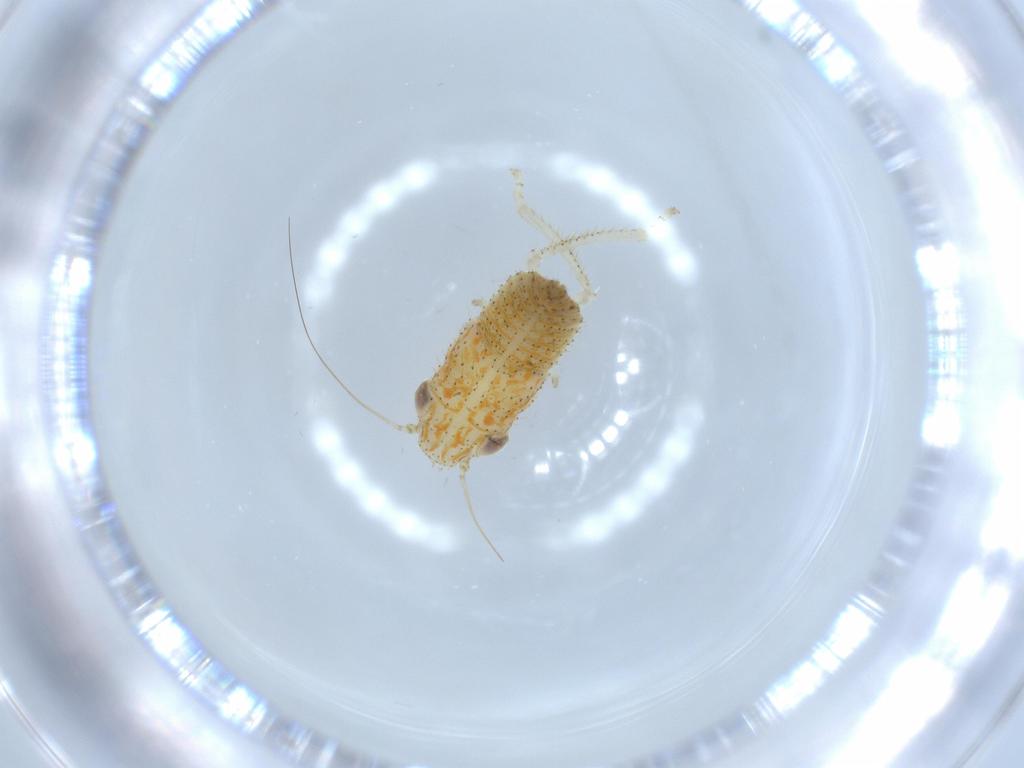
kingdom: Animalia
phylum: Arthropoda
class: Insecta
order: Hemiptera
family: Cicadellidae
